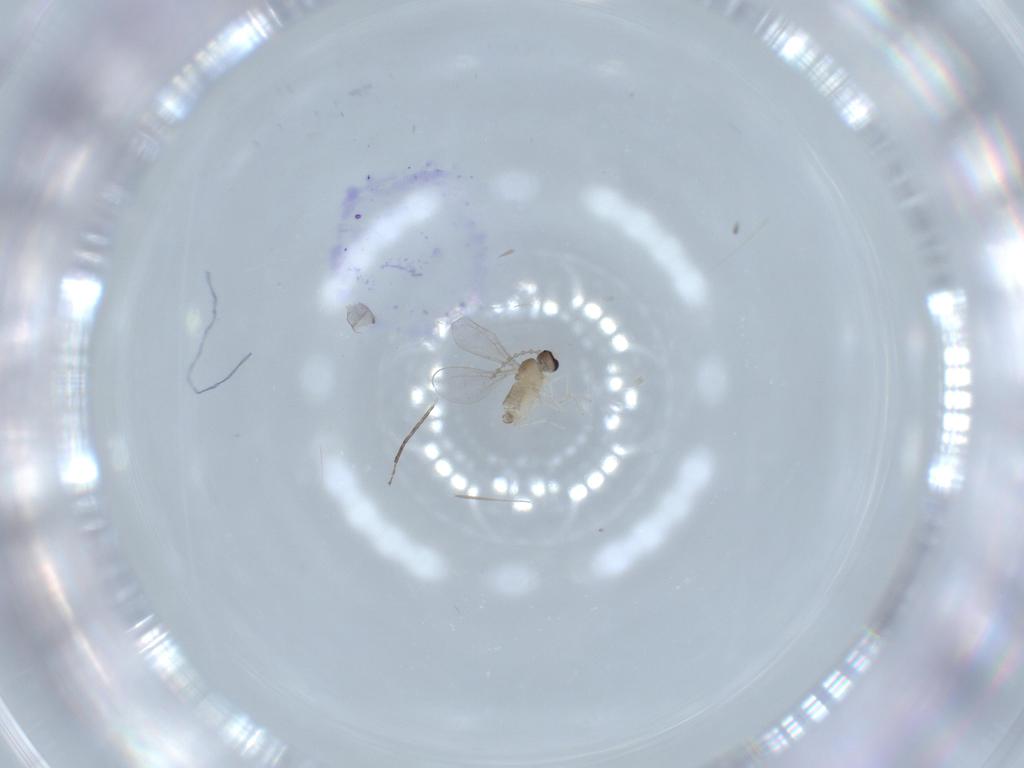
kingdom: Animalia
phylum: Arthropoda
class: Insecta
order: Diptera
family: Cecidomyiidae
